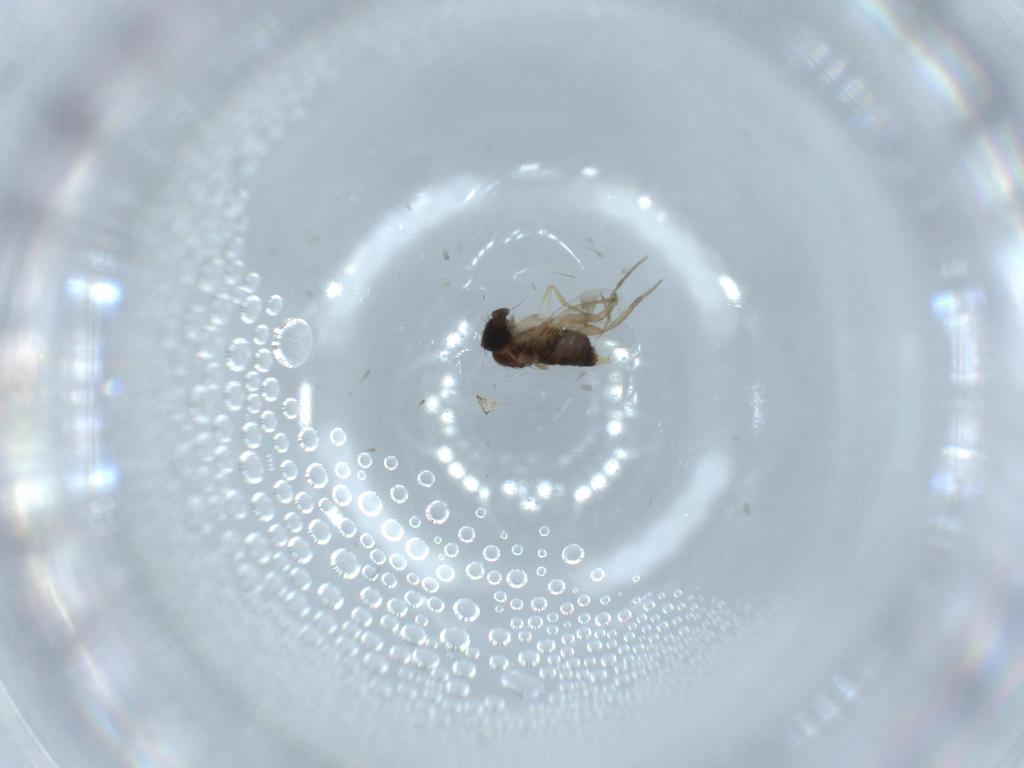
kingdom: Animalia
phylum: Arthropoda
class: Insecta
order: Diptera
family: Phoridae
